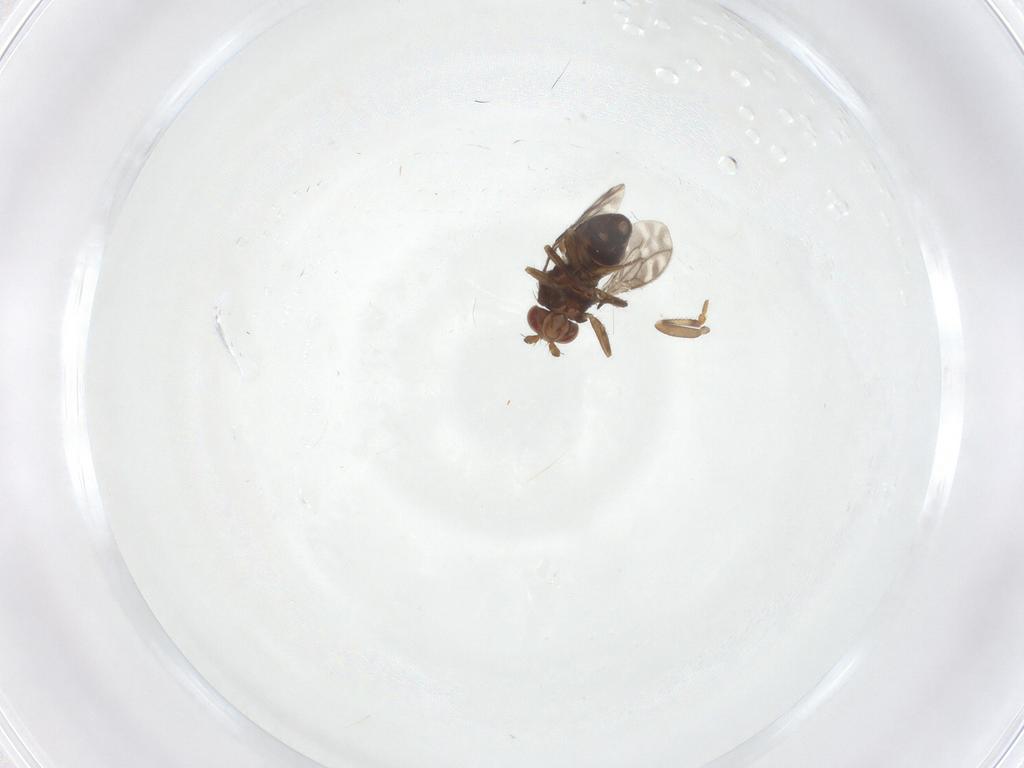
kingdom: Animalia
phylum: Arthropoda
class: Insecta
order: Diptera
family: Sphaeroceridae
